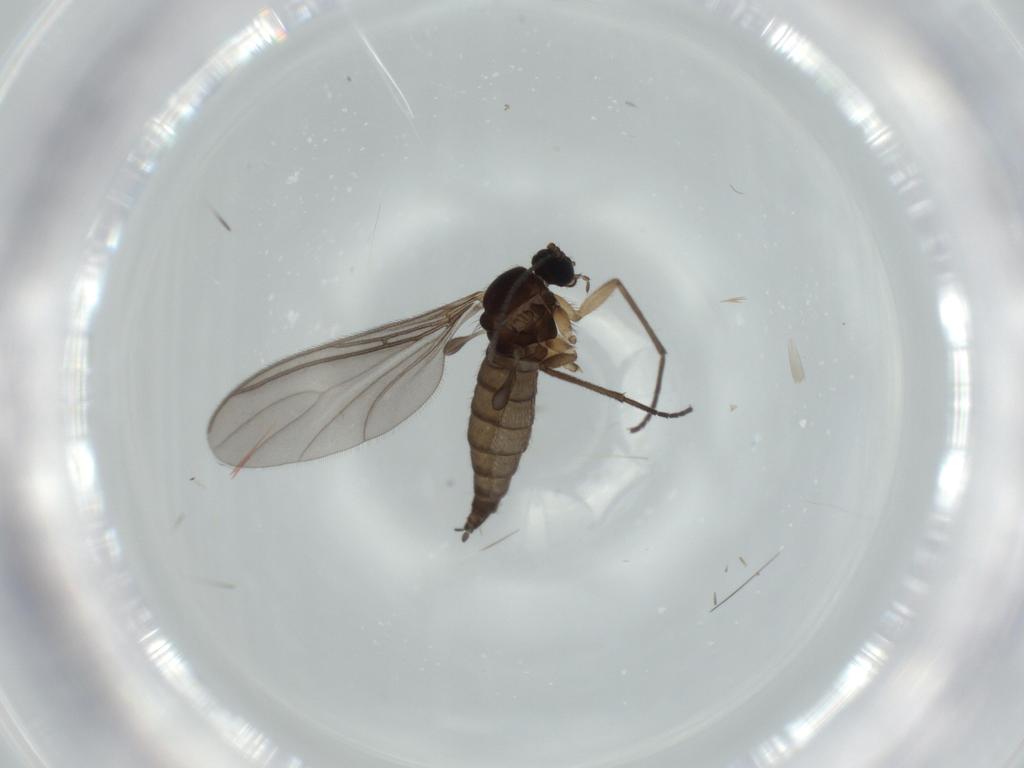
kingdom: Animalia
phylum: Arthropoda
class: Insecta
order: Diptera
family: Sciaridae
